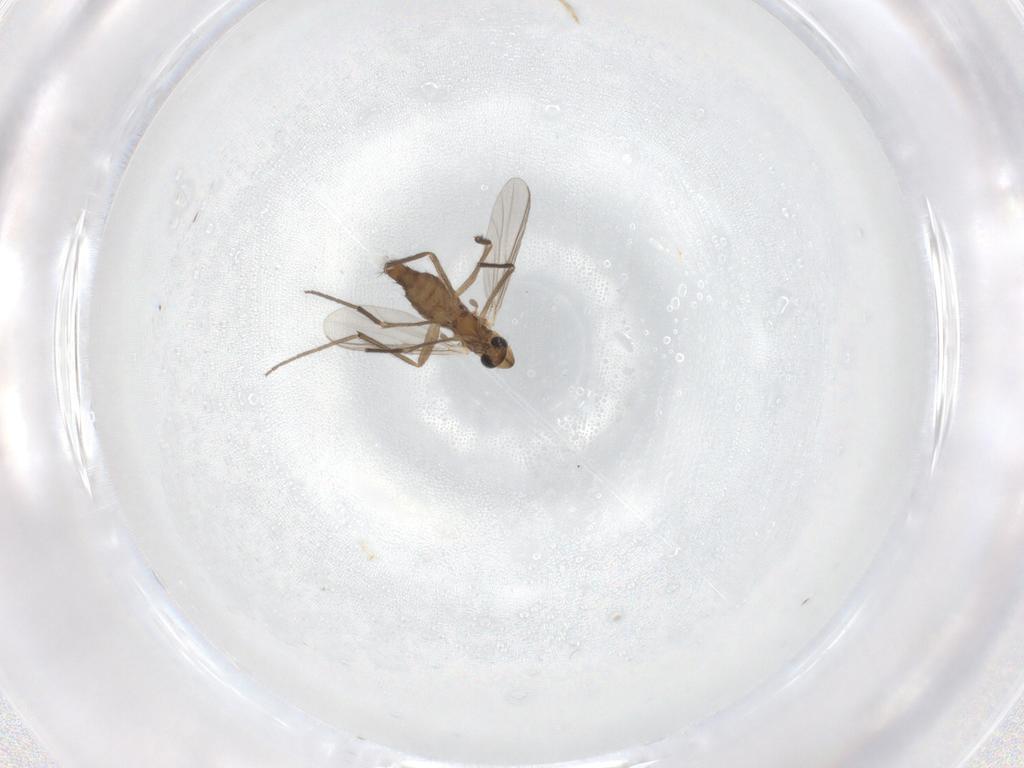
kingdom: Animalia
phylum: Arthropoda
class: Insecta
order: Diptera
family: Chironomidae
